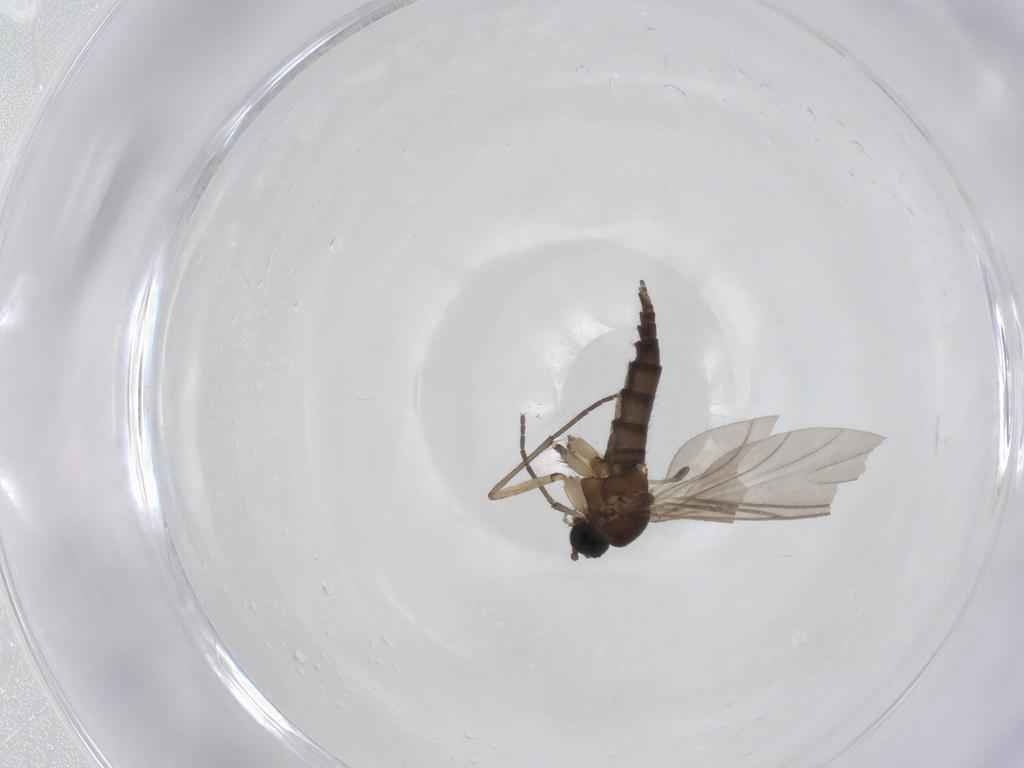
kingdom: Animalia
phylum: Arthropoda
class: Insecta
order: Diptera
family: Sciaridae
